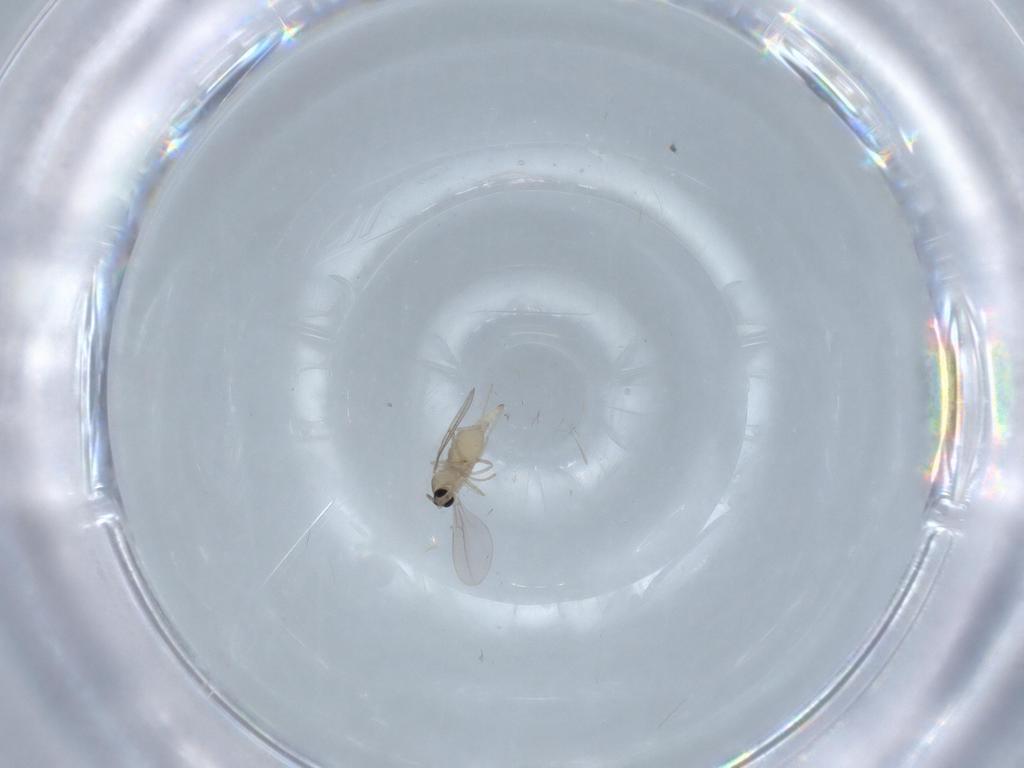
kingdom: Animalia
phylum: Arthropoda
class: Insecta
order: Diptera
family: Cecidomyiidae
